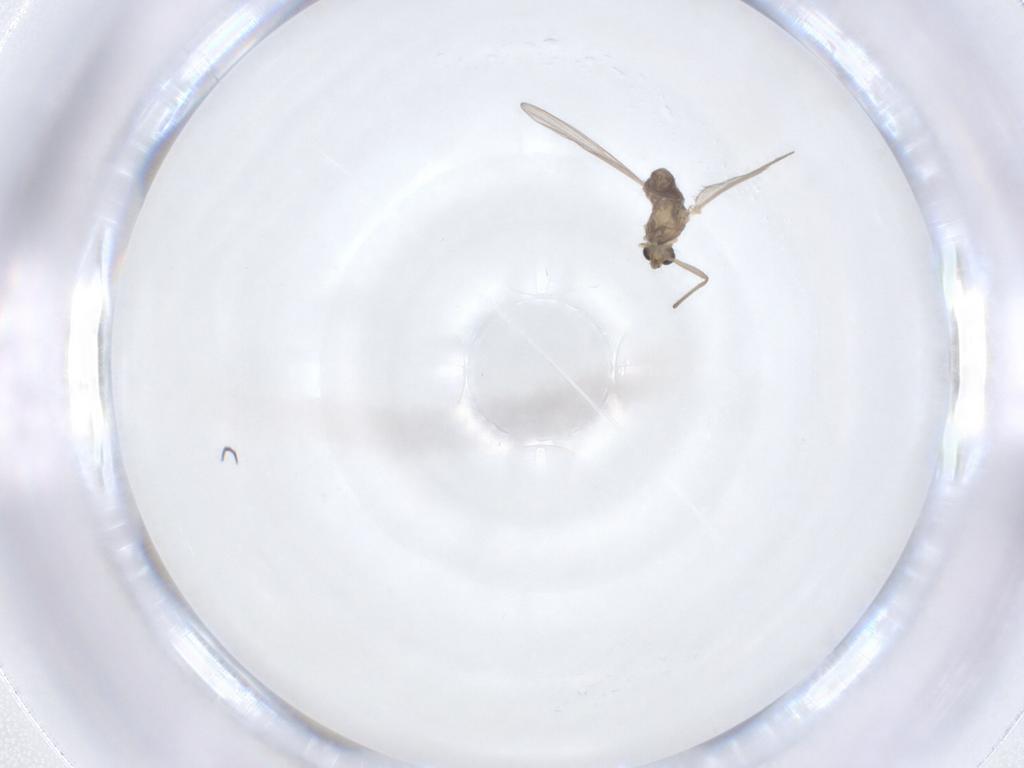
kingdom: Animalia
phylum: Arthropoda
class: Insecta
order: Diptera
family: Chironomidae
